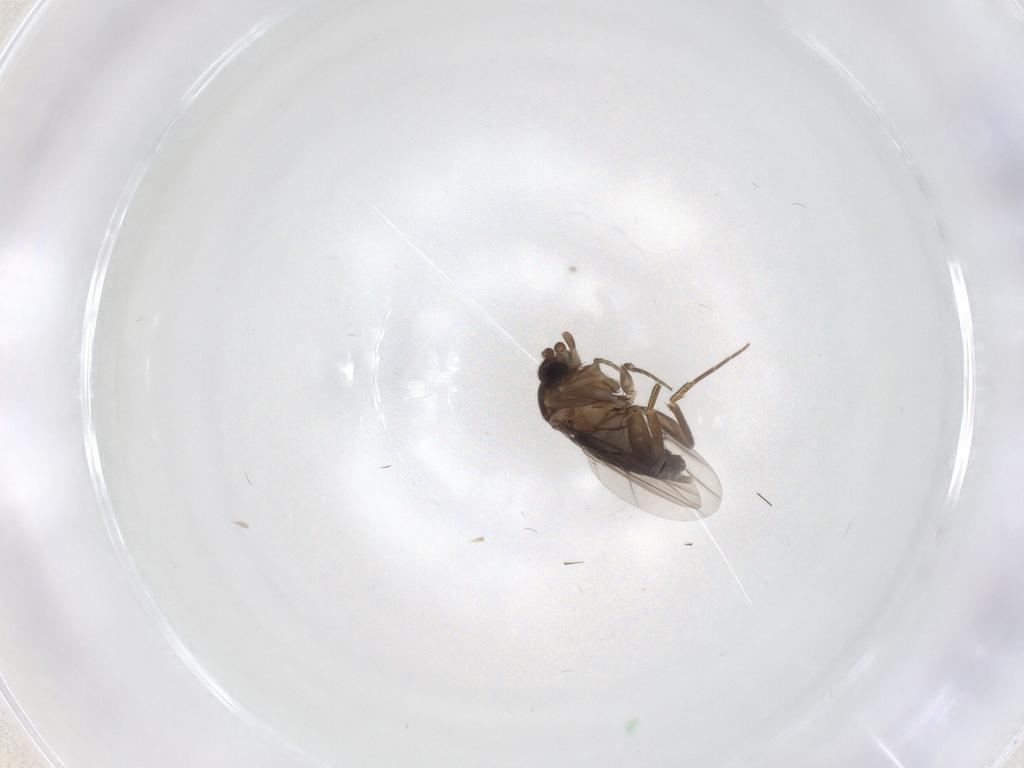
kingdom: Animalia
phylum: Arthropoda
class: Insecta
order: Diptera
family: Phoridae
